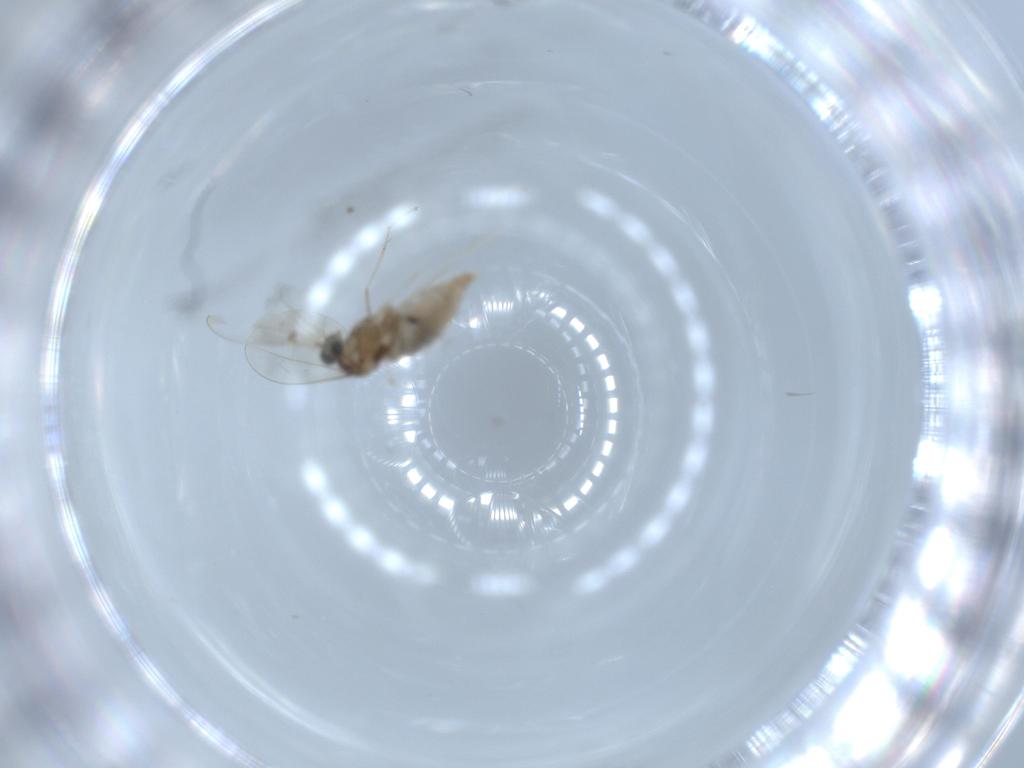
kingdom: Animalia
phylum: Arthropoda
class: Insecta
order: Diptera
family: Cecidomyiidae
